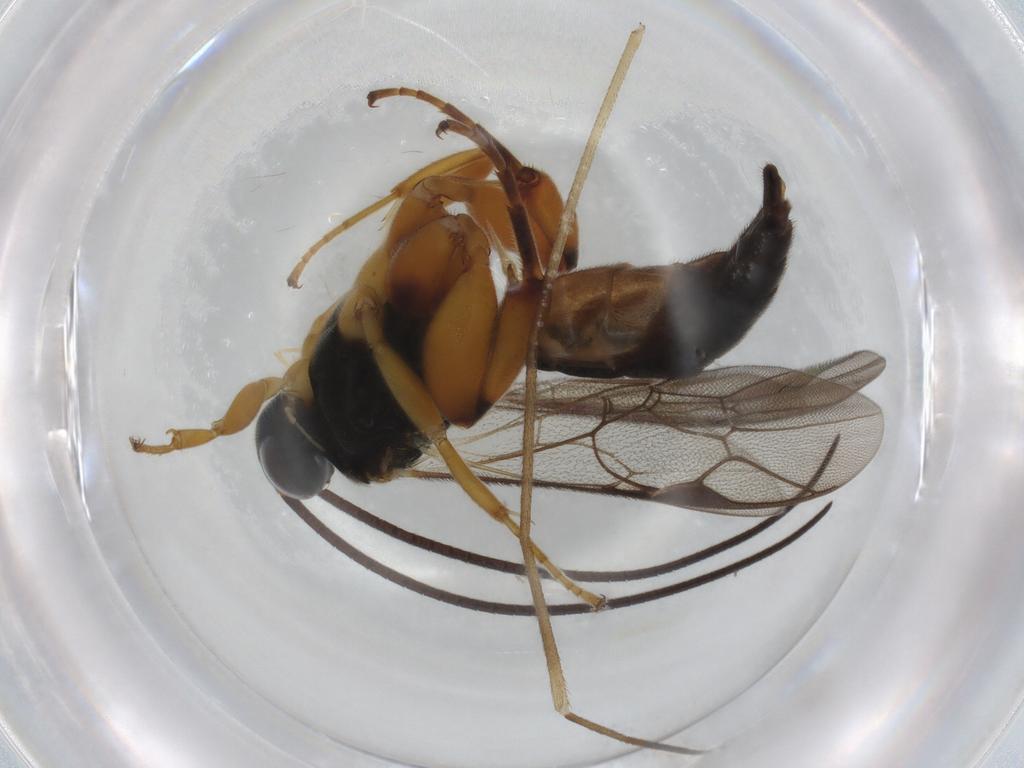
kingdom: Animalia
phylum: Arthropoda
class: Insecta
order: Hymenoptera
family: Ichneumonidae
